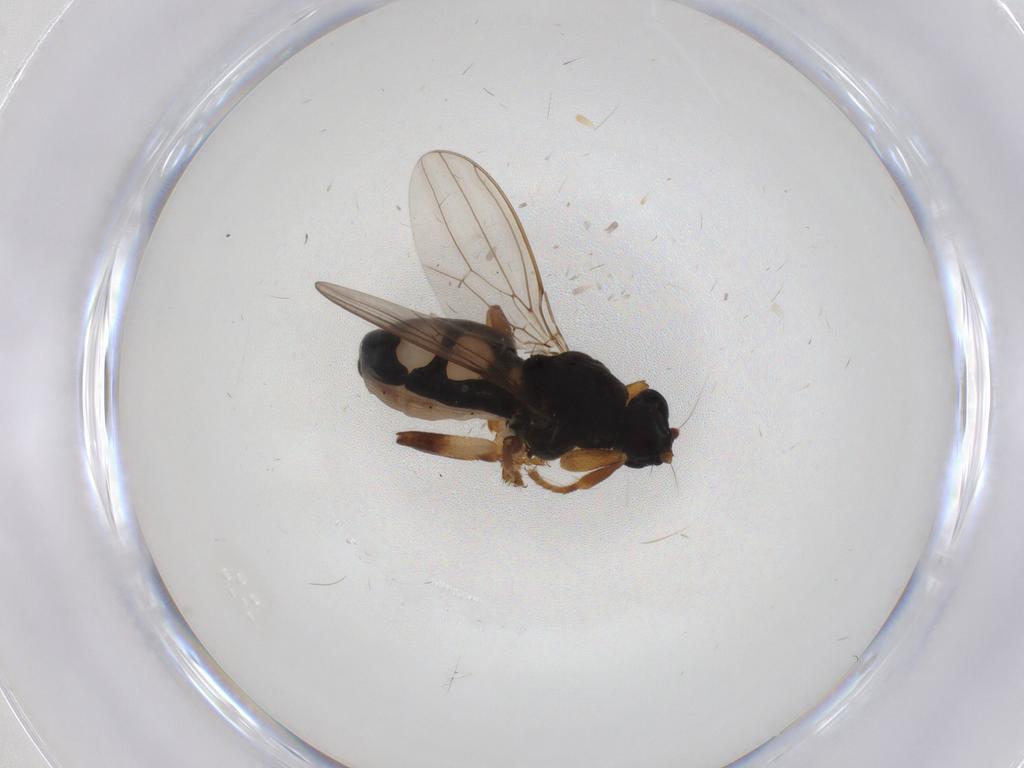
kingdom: Animalia
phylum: Arthropoda
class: Insecta
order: Diptera
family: Sphaeroceridae
